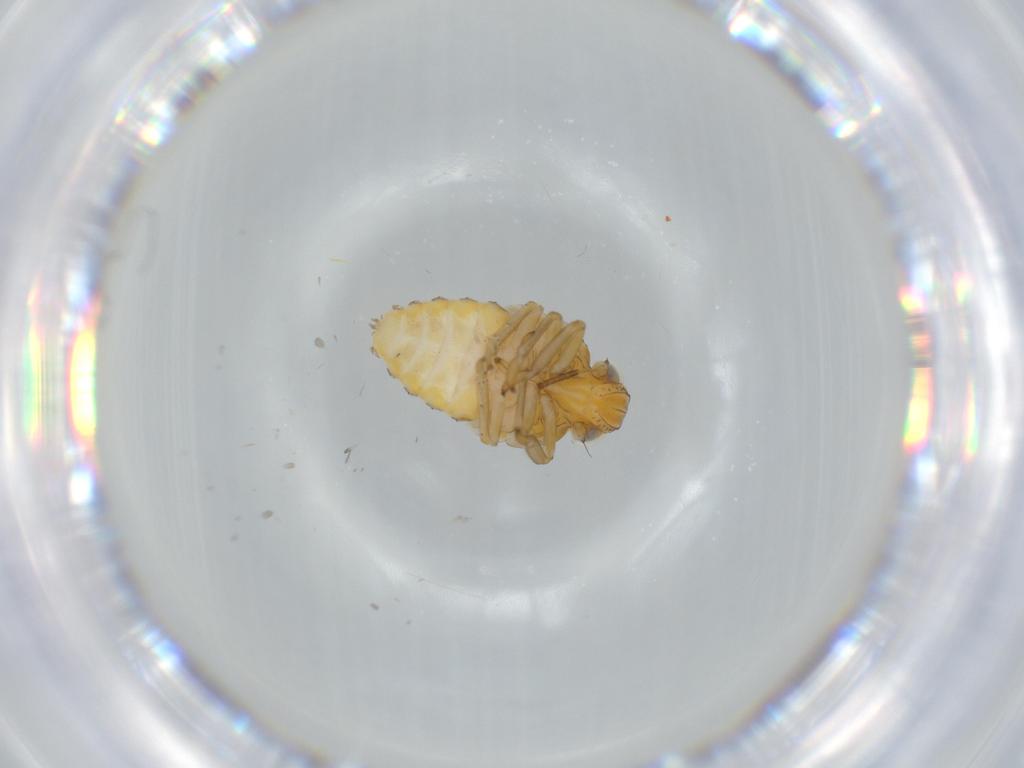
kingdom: Animalia
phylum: Arthropoda
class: Insecta
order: Hemiptera
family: Issidae
